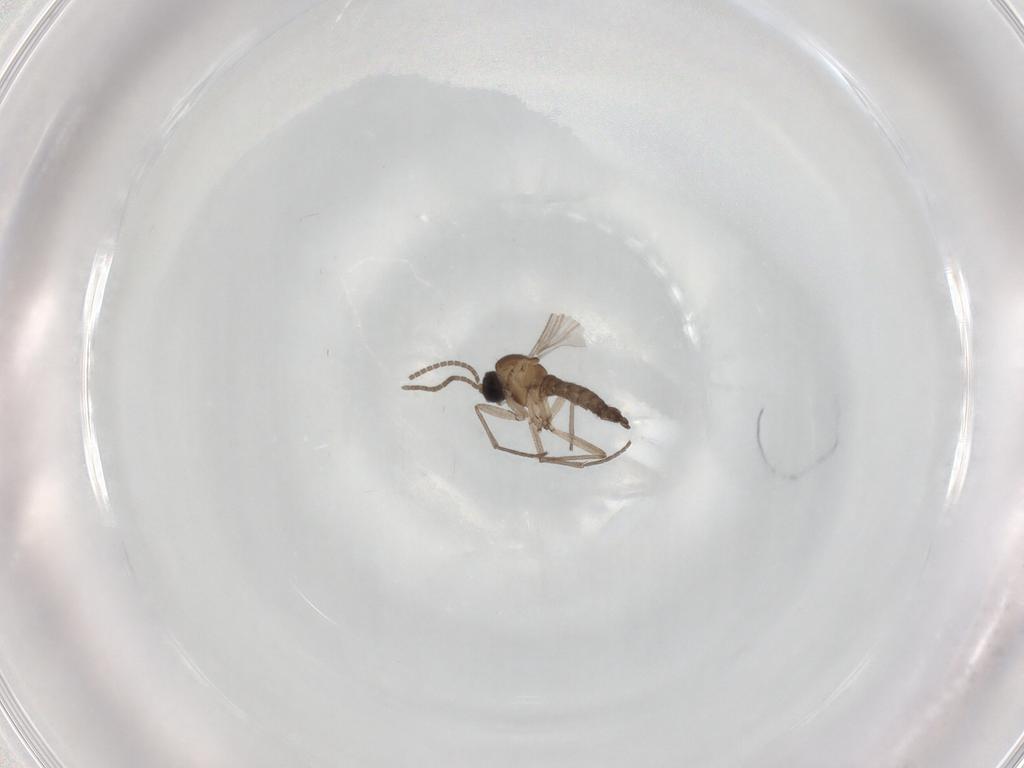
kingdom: Animalia
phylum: Arthropoda
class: Insecta
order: Diptera
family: Sciaridae
